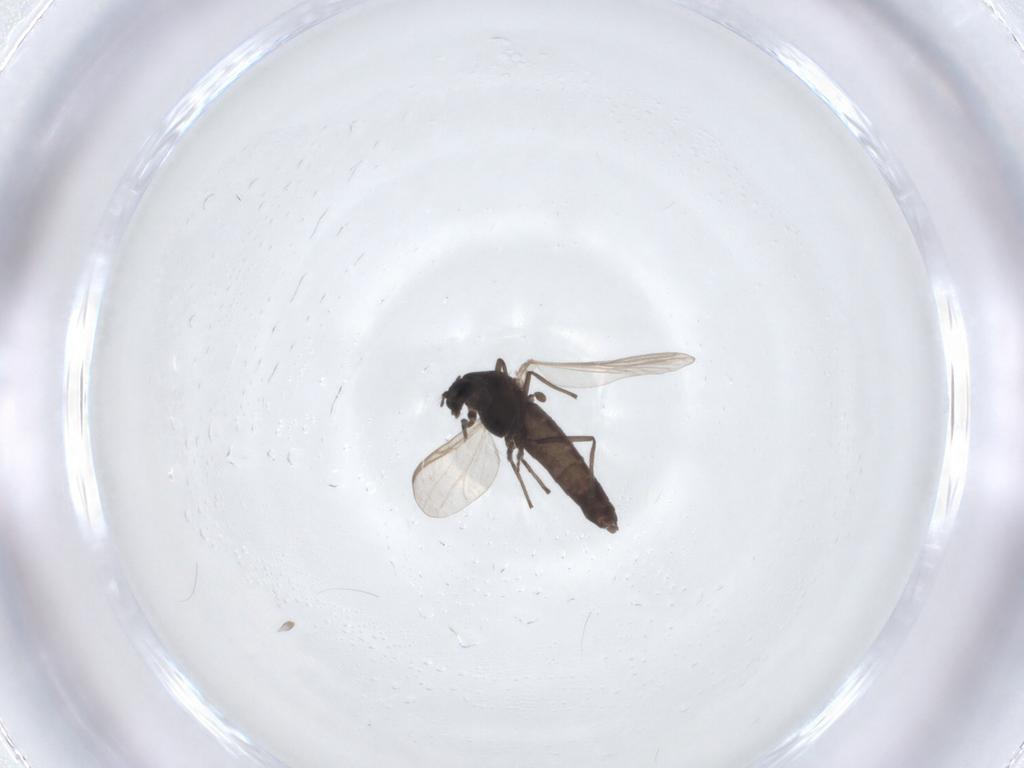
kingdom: Animalia
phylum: Arthropoda
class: Insecta
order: Diptera
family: Chironomidae
